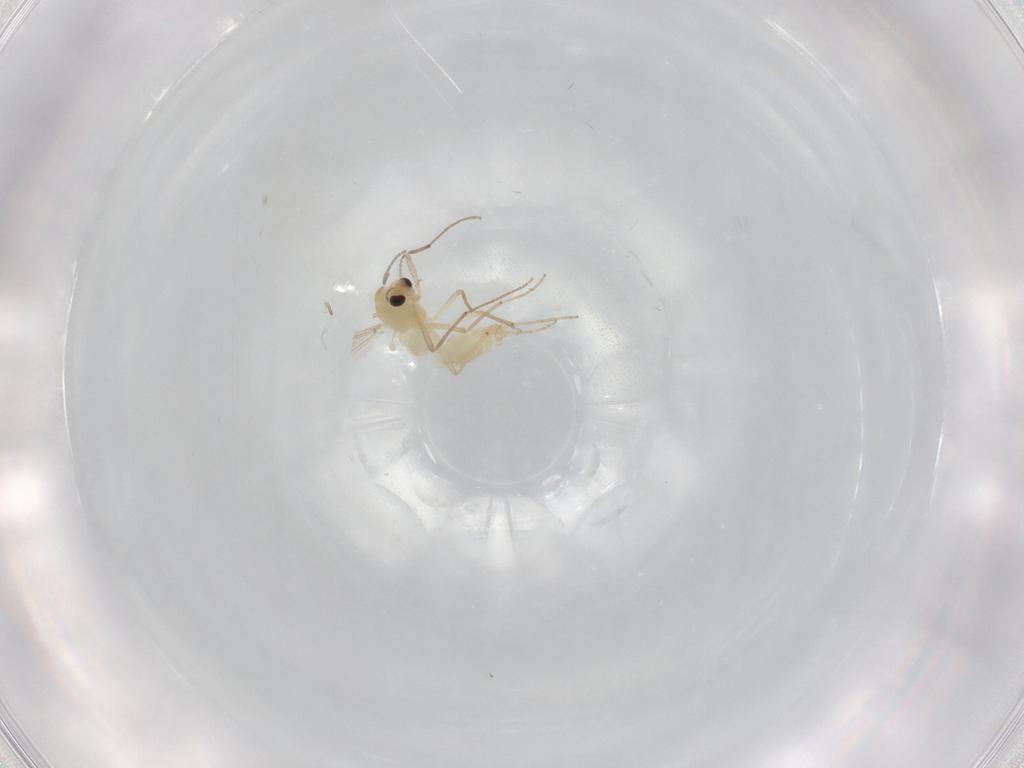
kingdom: Animalia
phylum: Arthropoda
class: Insecta
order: Diptera
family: Chironomidae
